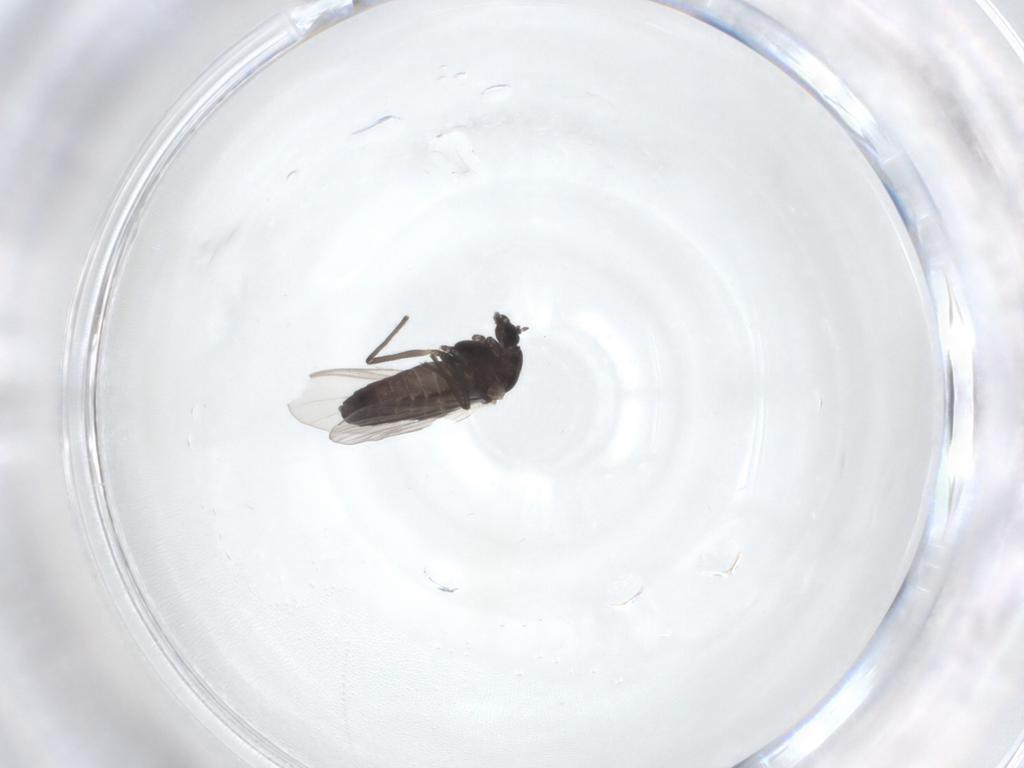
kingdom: Animalia
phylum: Arthropoda
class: Insecta
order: Diptera
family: Chironomidae
